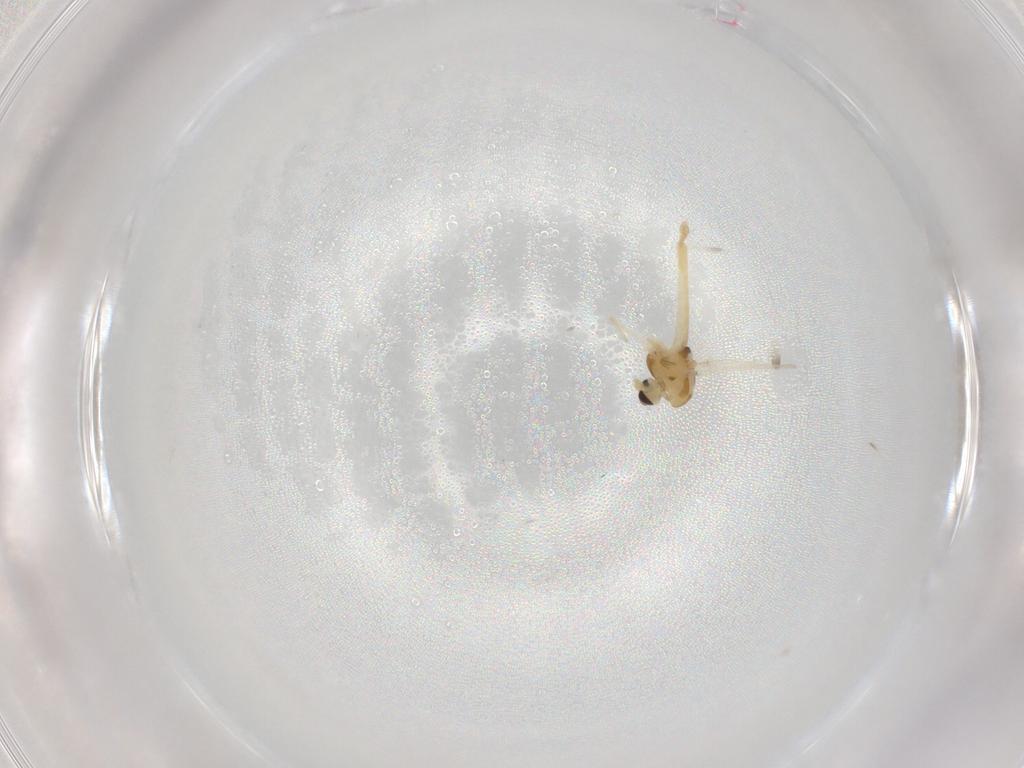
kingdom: Animalia
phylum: Arthropoda
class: Insecta
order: Diptera
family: Chironomidae
